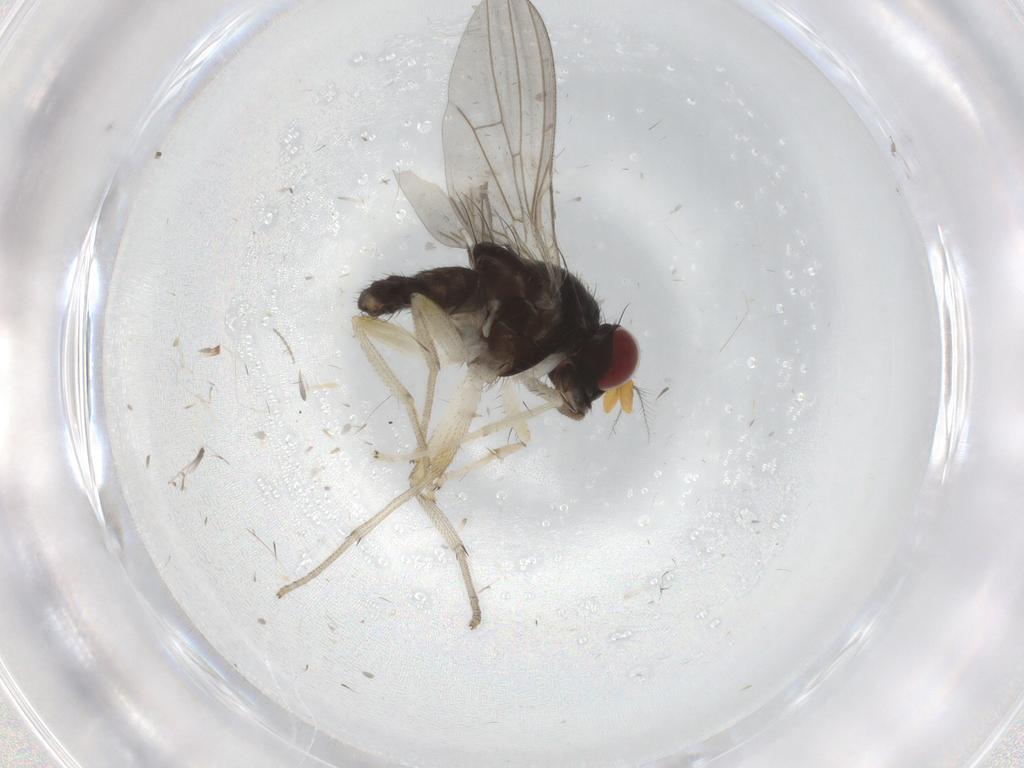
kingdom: Animalia
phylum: Arthropoda
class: Insecta
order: Diptera
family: Syrphidae
